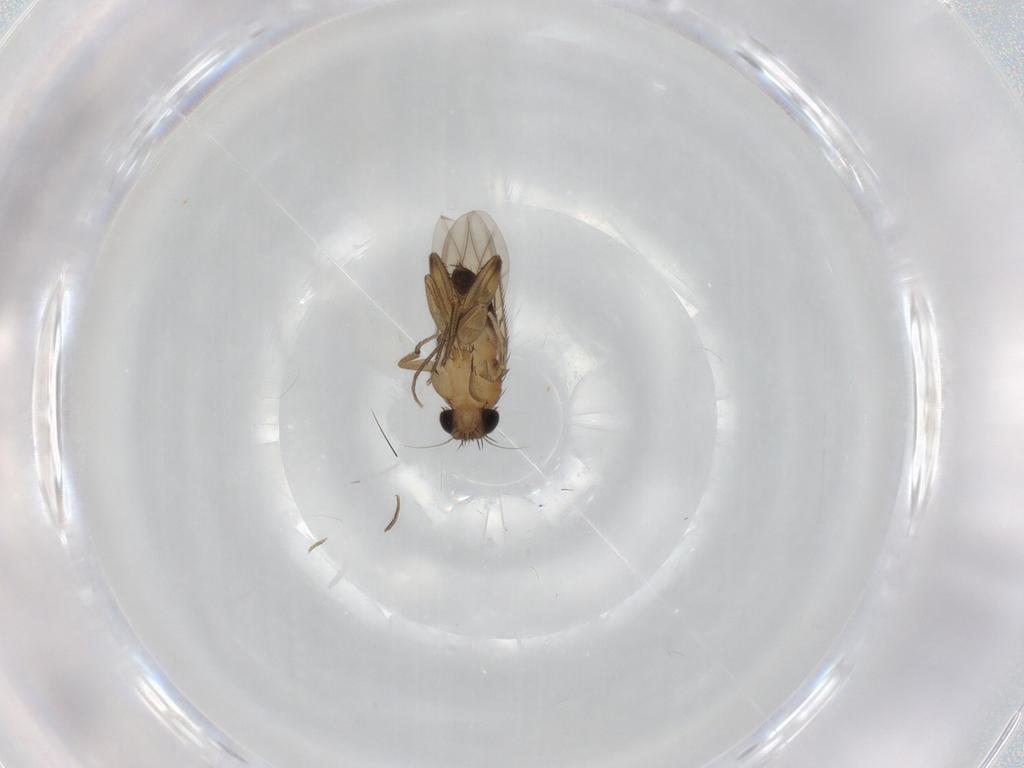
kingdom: Animalia
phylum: Arthropoda
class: Insecta
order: Diptera
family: Phoridae
